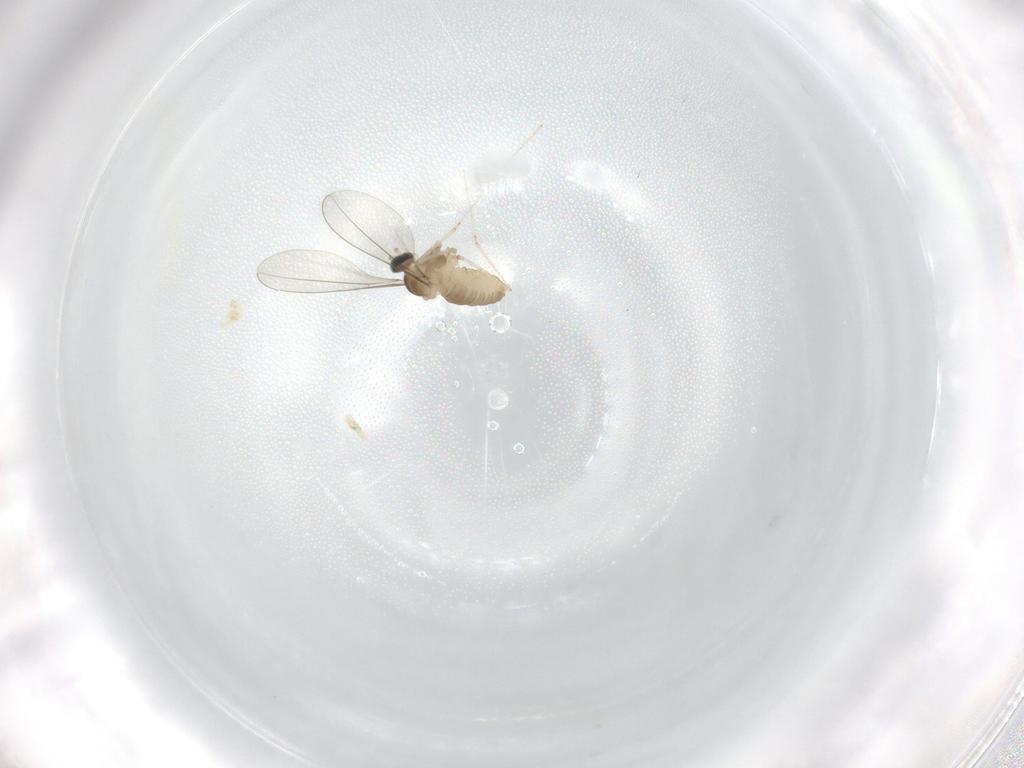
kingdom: Animalia
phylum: Arthropoda
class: Insecta
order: Diptera
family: Cecidomyiidae
